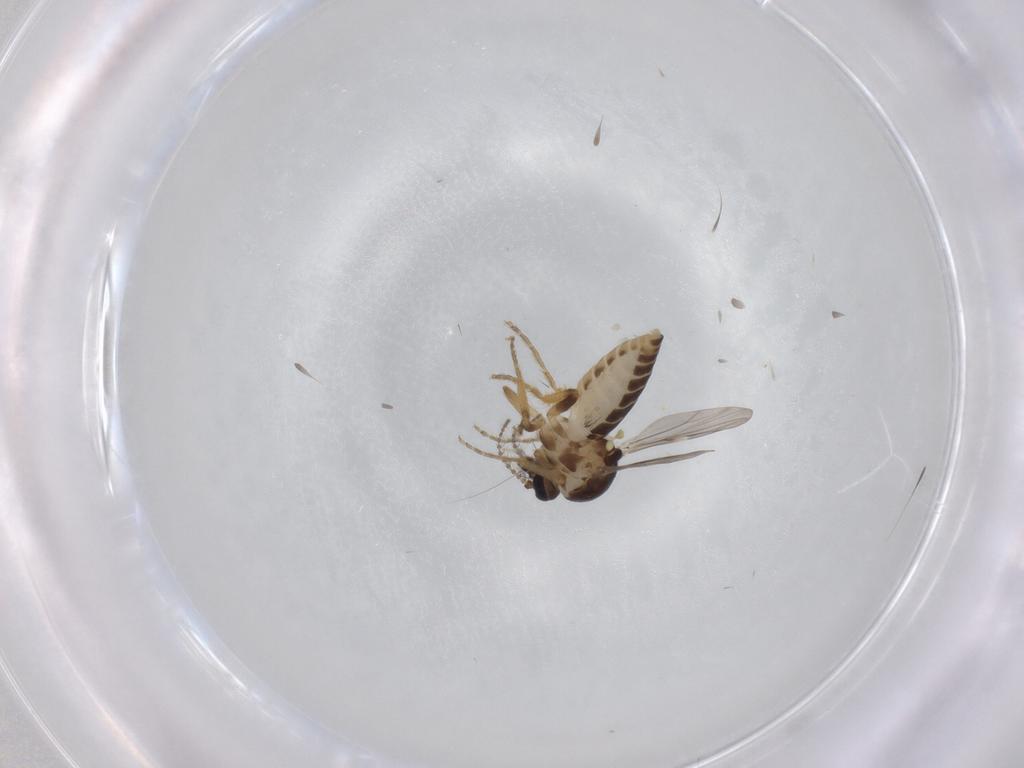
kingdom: Animalia
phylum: Arthropoda
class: Insecta
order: Diptera
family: Ceratopogonidae
